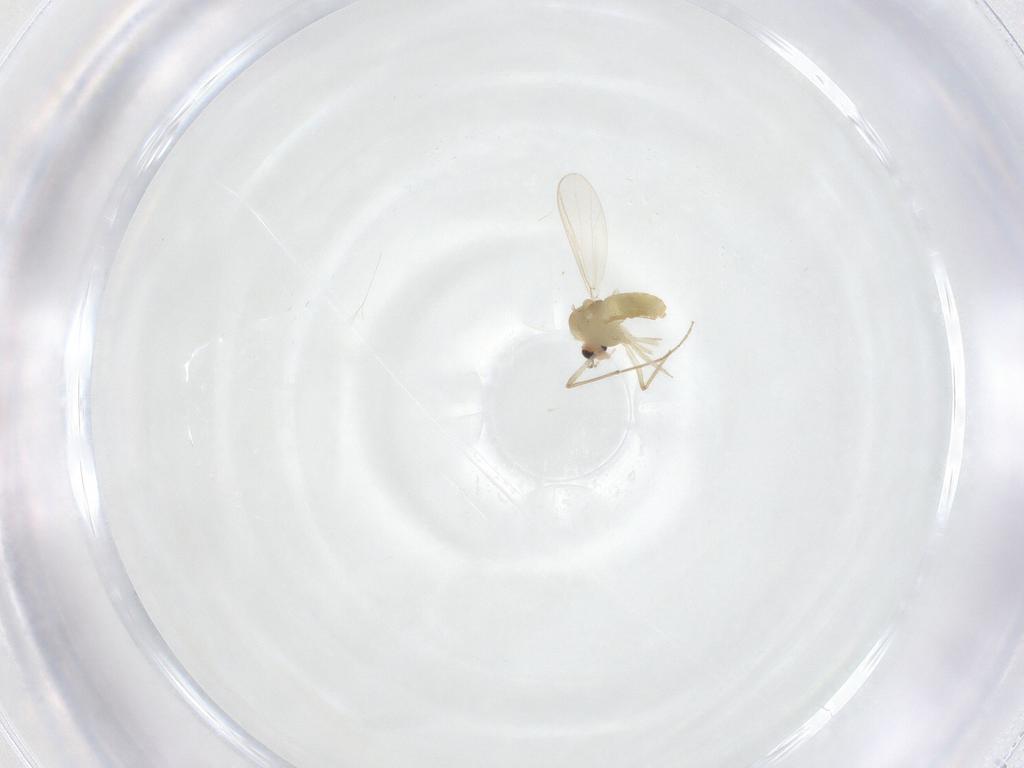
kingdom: Animalia
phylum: Arthropoda
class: Insecta
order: Diptera
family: Chironomidae
